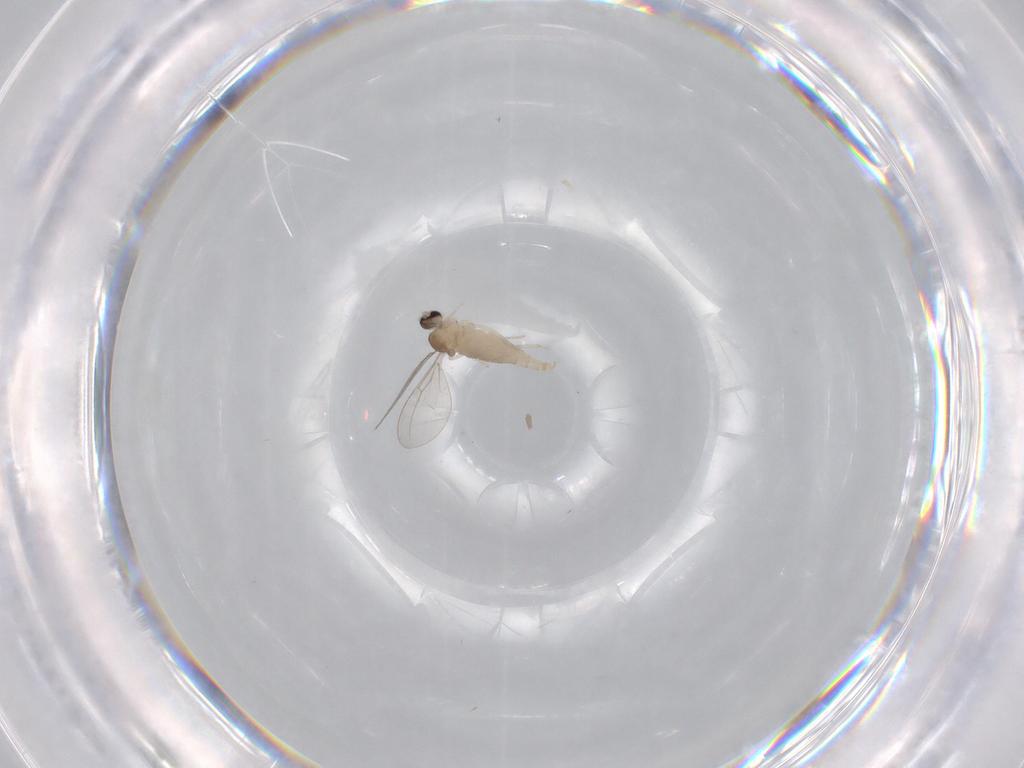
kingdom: Animalia
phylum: Arthropoda
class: Insecta
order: Diptera
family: Cecidomyiidae
